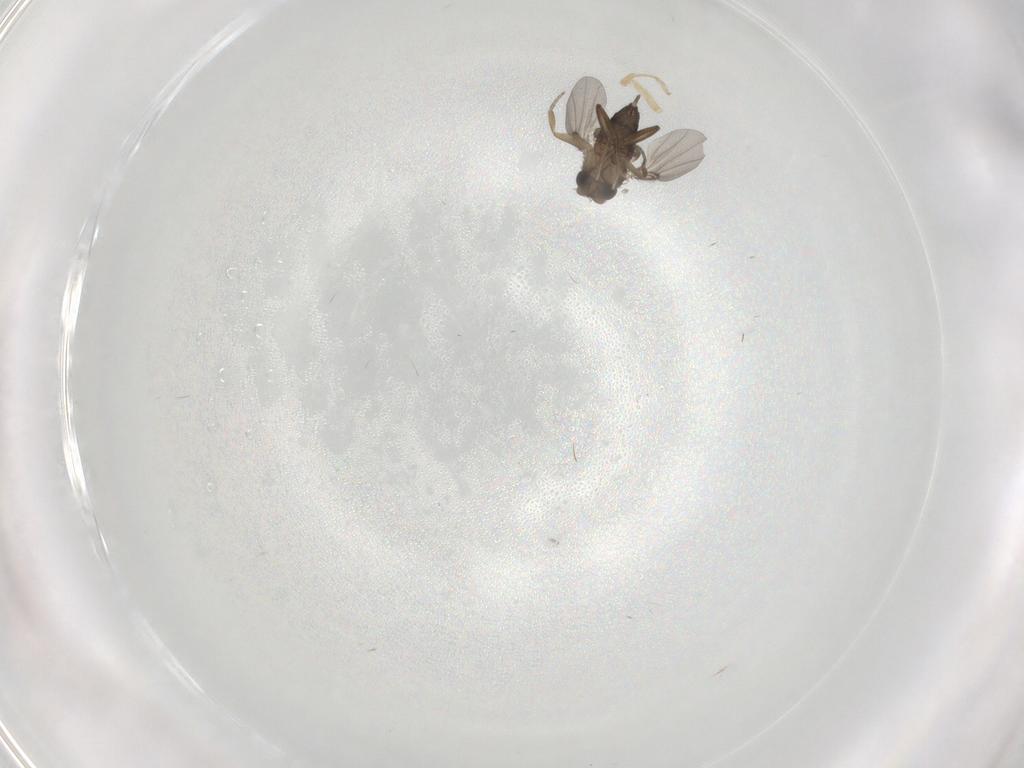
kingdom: Animalia
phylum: Arthropoda
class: Insecta
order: Diptera
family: Phoridae
